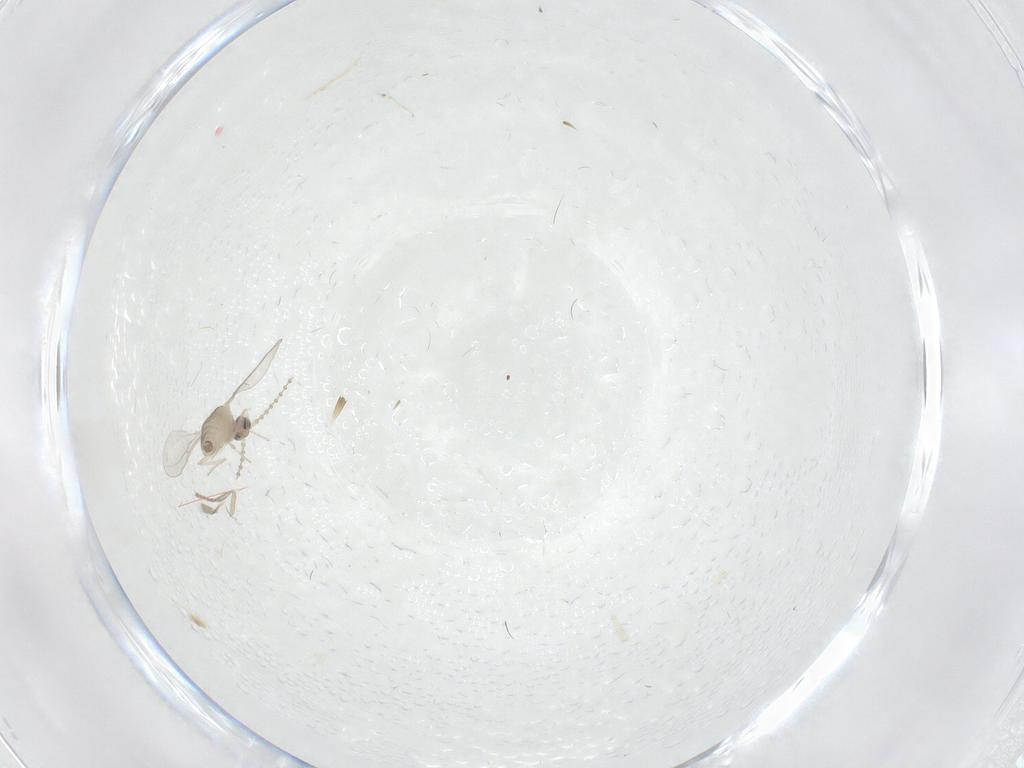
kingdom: Animalia
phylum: Arthropoda
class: Insecta
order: Diptera
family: Psychodidae
